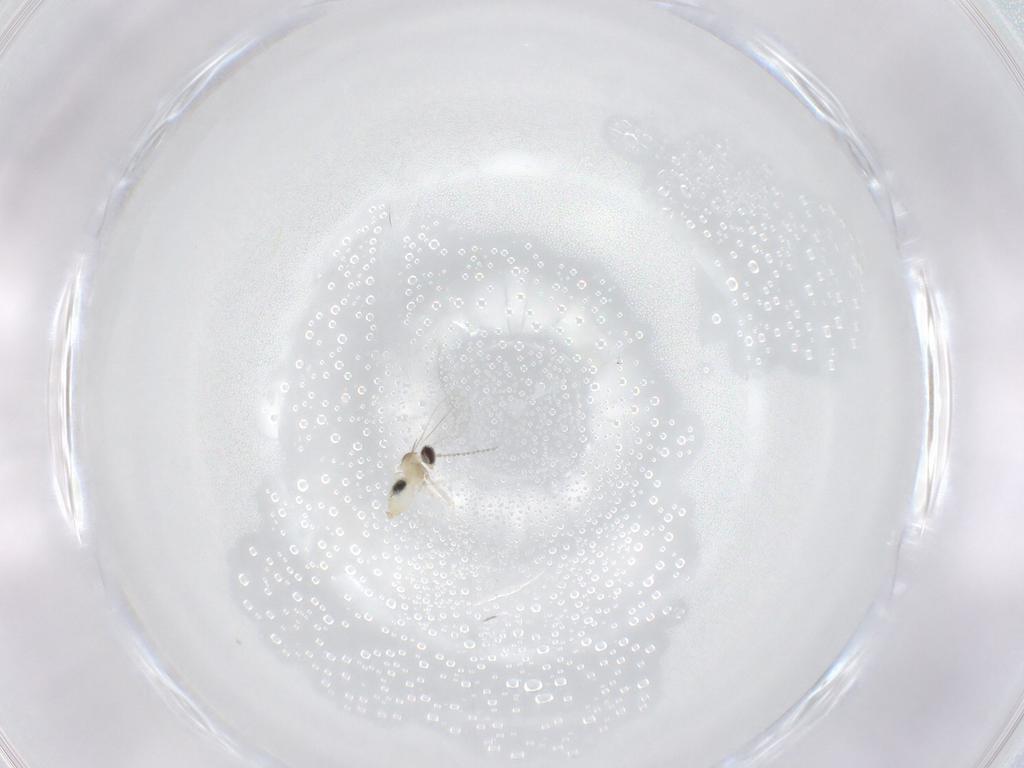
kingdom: Animalia
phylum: Arthropoda
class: Insecta
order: Diptera
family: Cecidomyiidae
